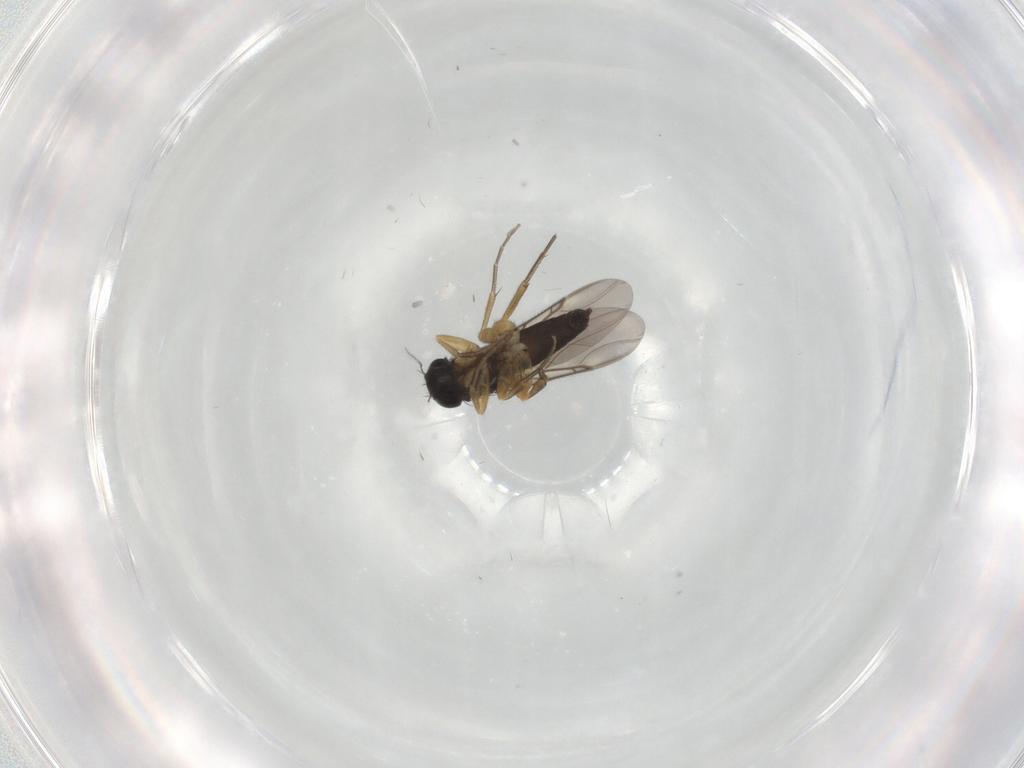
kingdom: Animalia
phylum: Arthropoda
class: Insecta
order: Diptera
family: Cecidomyiidae
